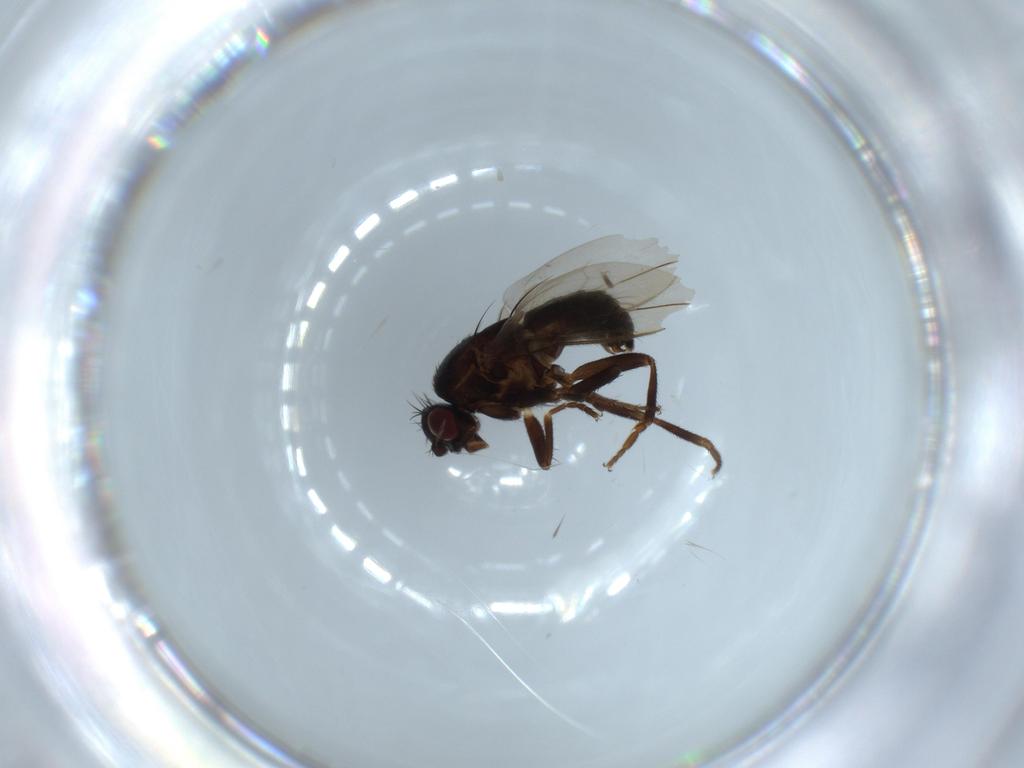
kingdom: Animalia
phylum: Arthropoda
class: Insecta
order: Diptera
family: Sphaeroceridae
